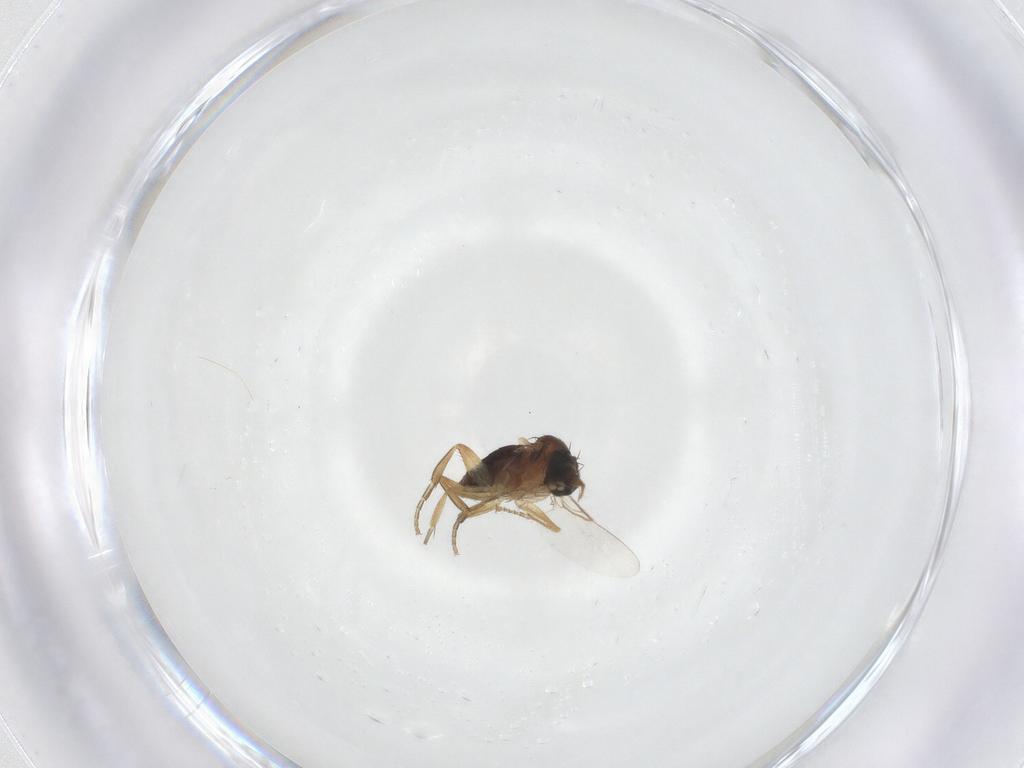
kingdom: Animalia
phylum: Arthropoda
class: Insecta
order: Diptera
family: Phoridae
